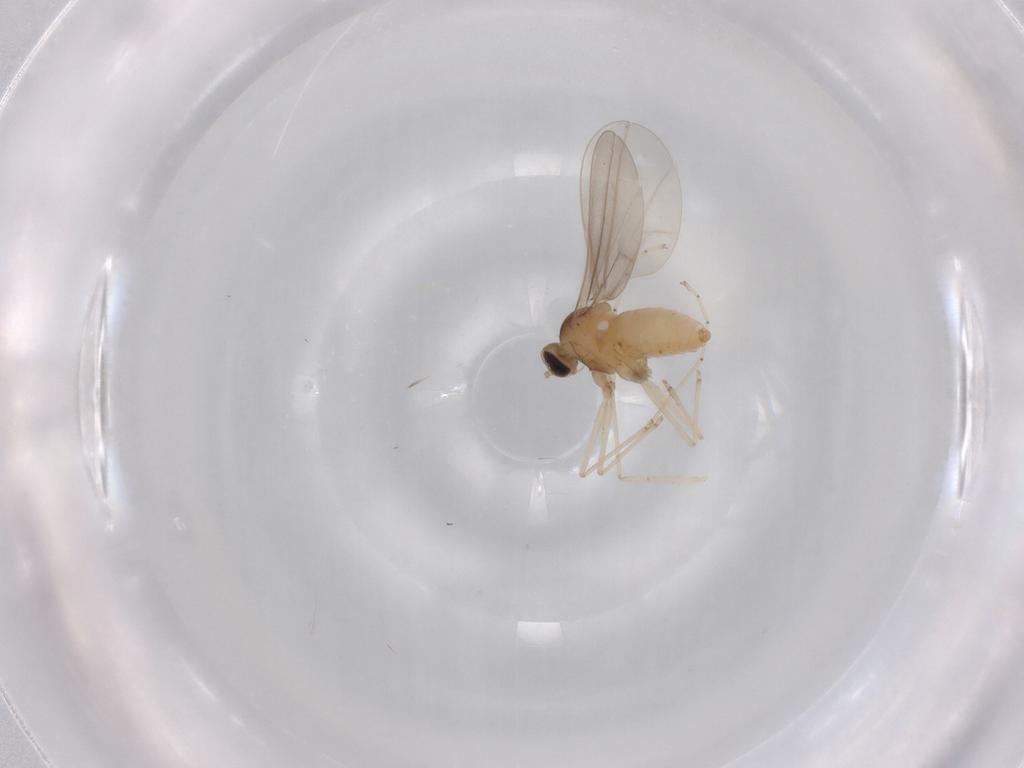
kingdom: Animalia
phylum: Arthropoda
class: Insecta
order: Diptera
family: Cecidomyiidae
